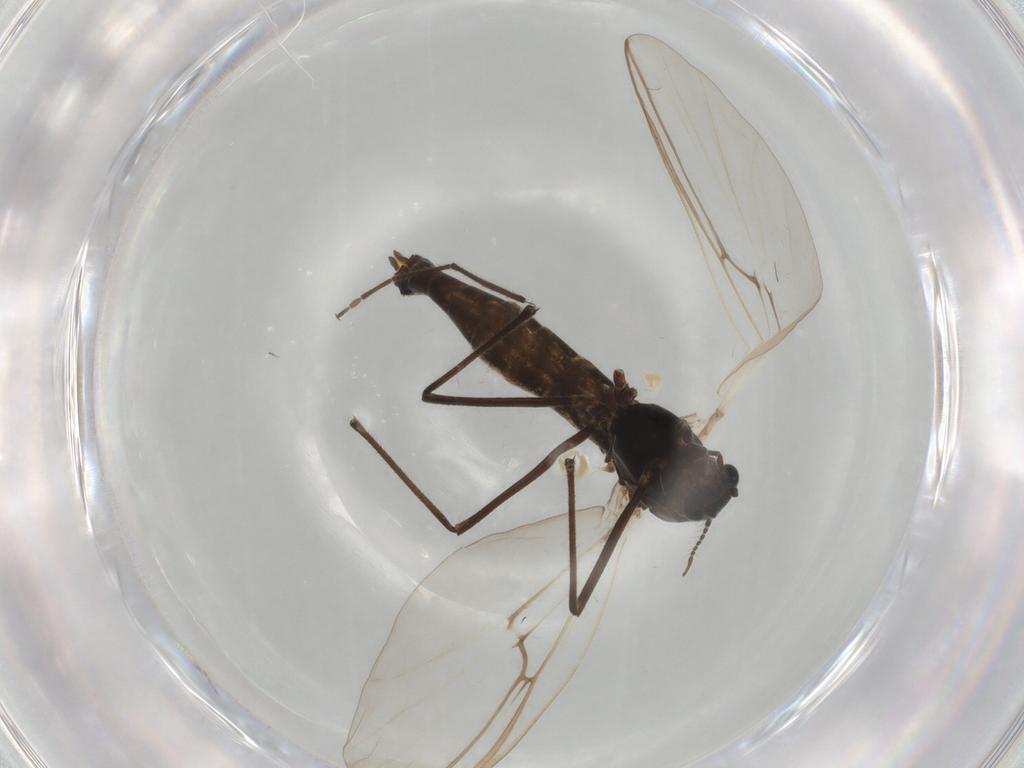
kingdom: Animalia
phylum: Arthropoda
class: Insecta
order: Diptera
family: Chironomidae
